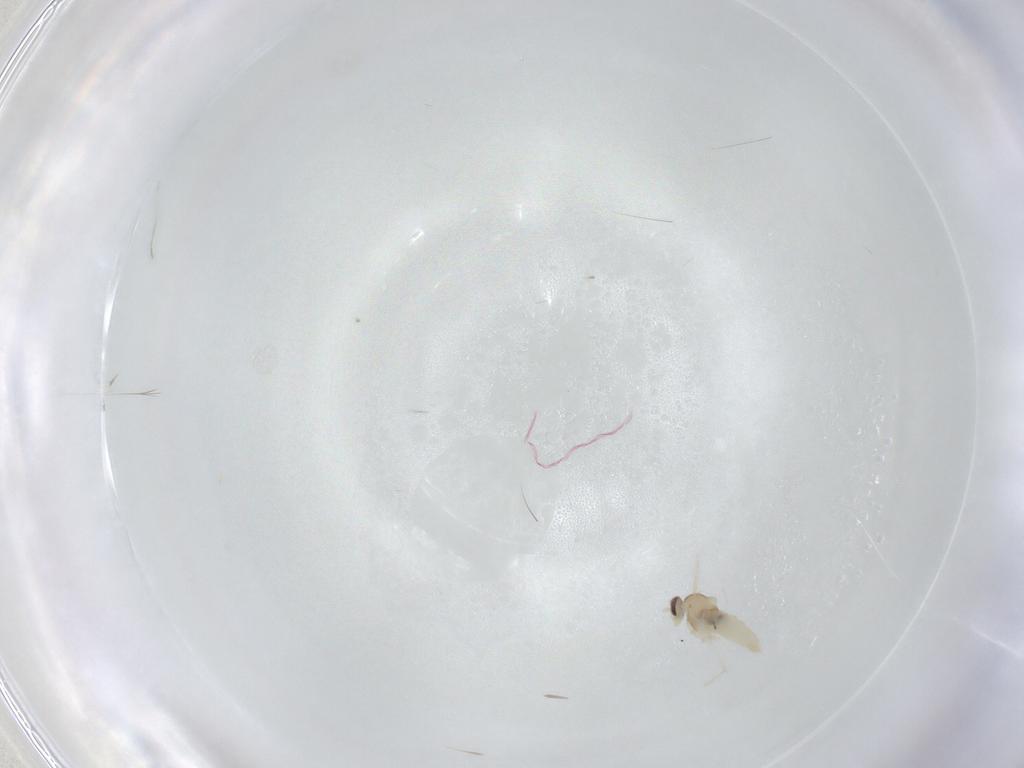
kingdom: Animalia
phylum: Arthropoda
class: Insecta
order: Diptera
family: Cecidomyiidae
